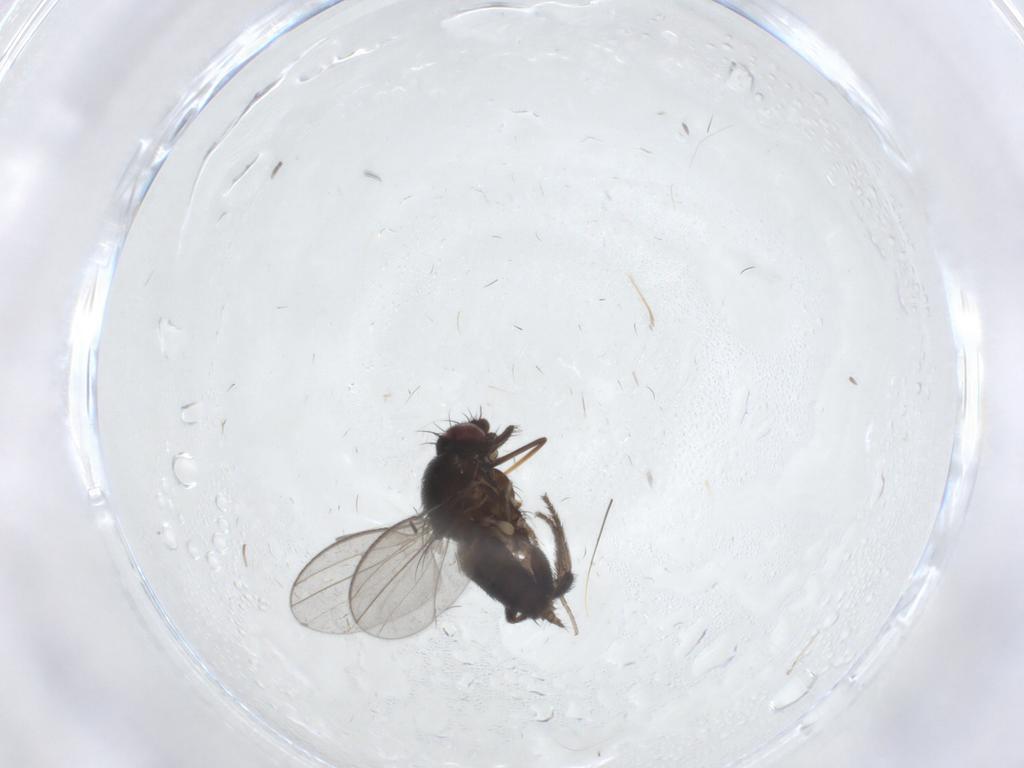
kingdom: Animalia
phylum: Arthropoda
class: Insecta
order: Diptera
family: Milichiidae
